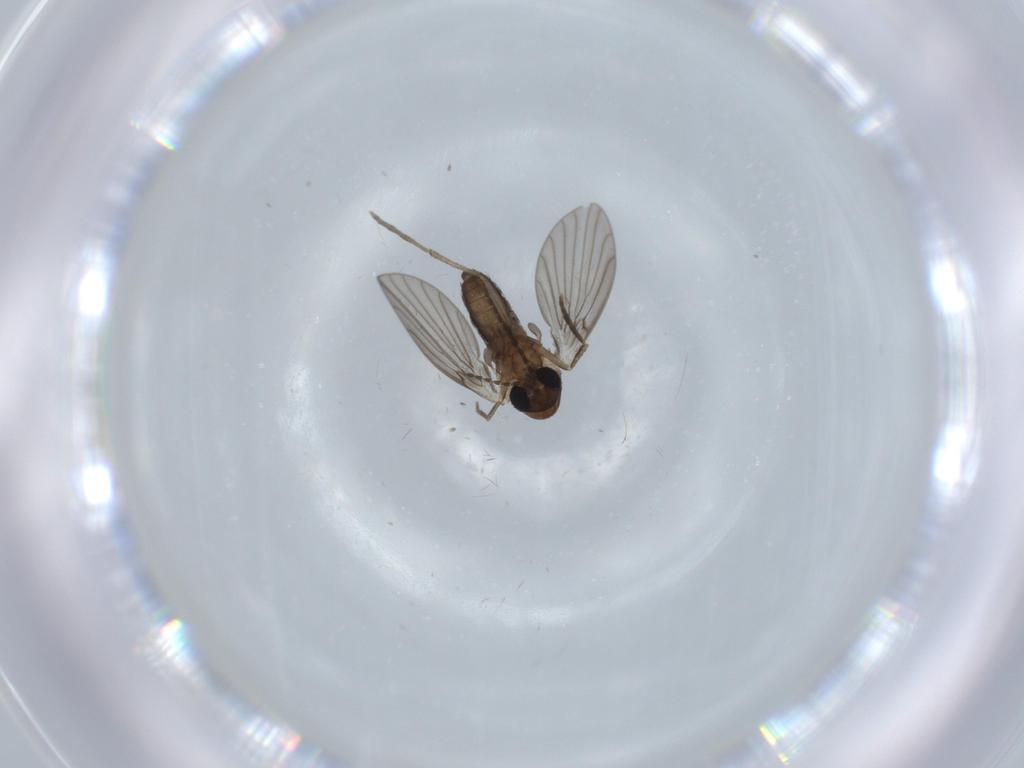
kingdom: Animalia
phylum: Arthropoda
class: Insecta
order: Diptera
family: Psychodidae
